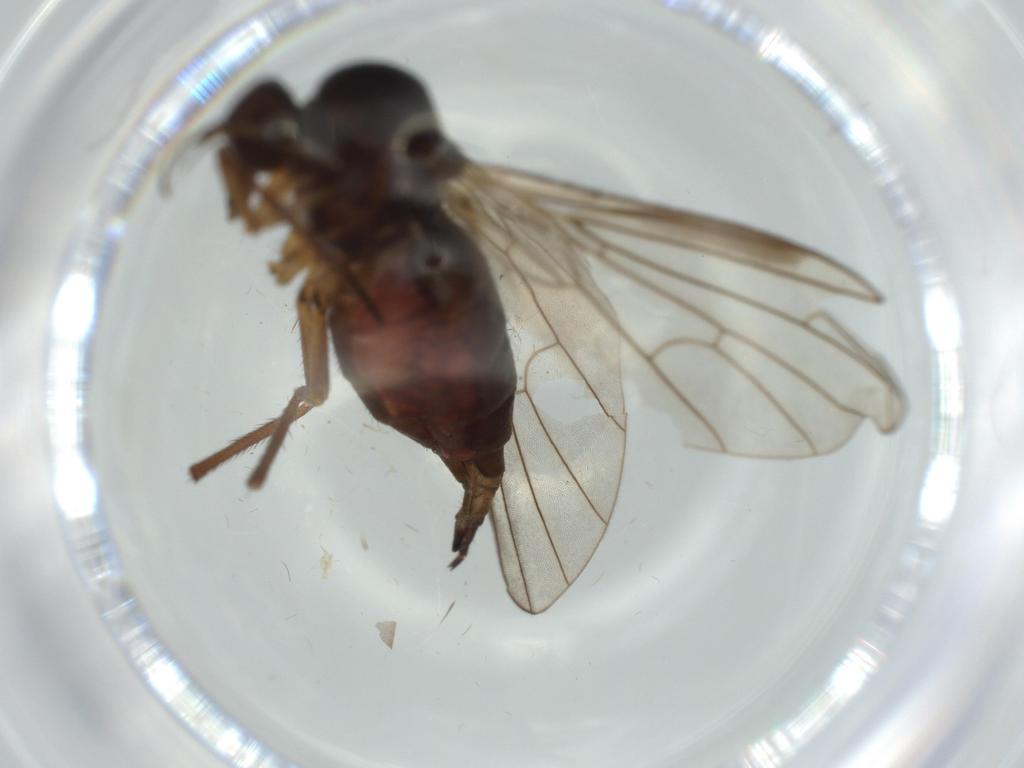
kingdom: Animalia
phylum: Arthropoda
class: Insecta
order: Diptera
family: Empididae
